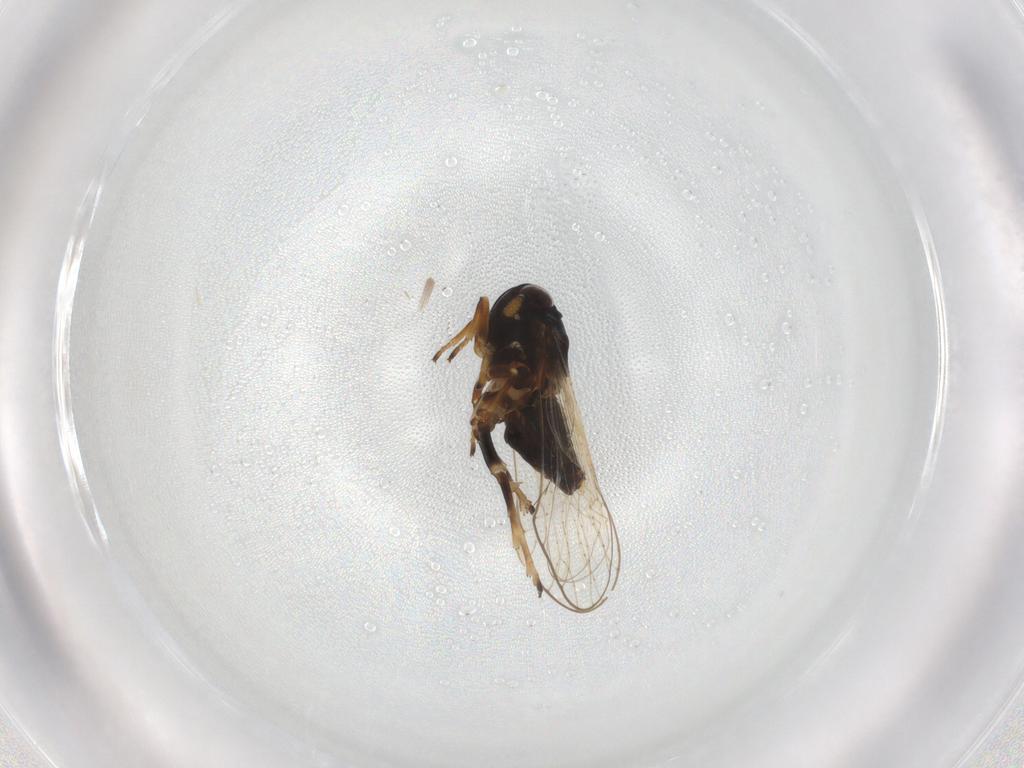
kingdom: Animalia
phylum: Arthropoda
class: Insecta
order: Hemiptera
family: Delphacidae
